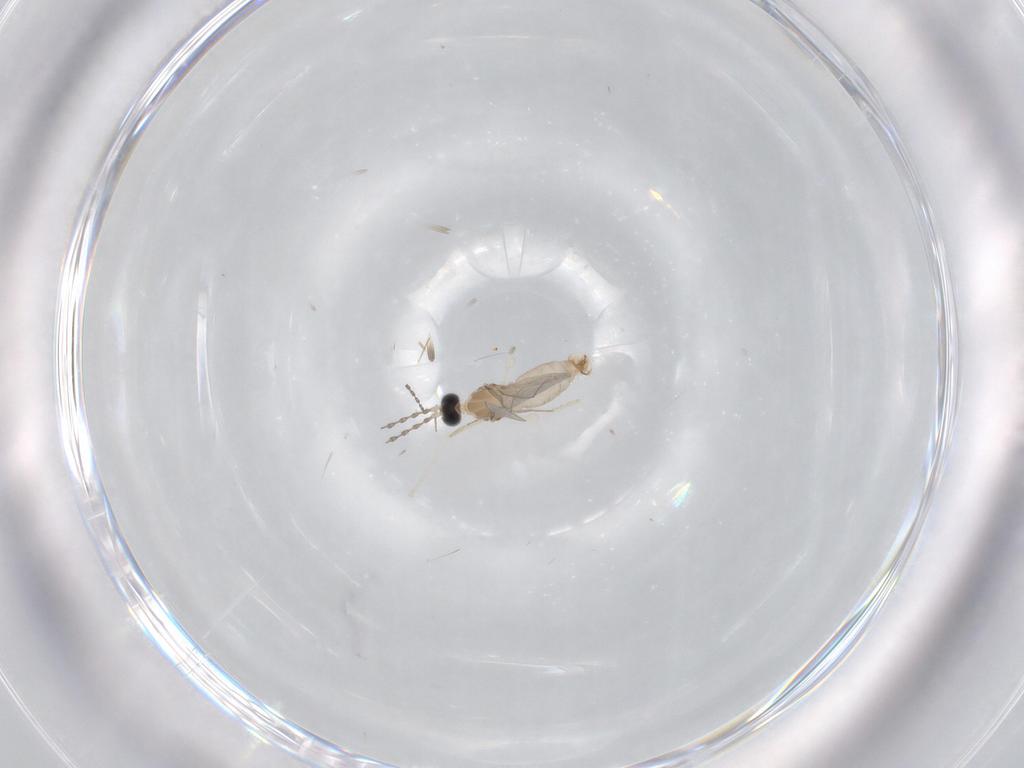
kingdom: Animalia
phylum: Arthropoda
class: Insecta
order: Diptera
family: Cecidomyiidae
